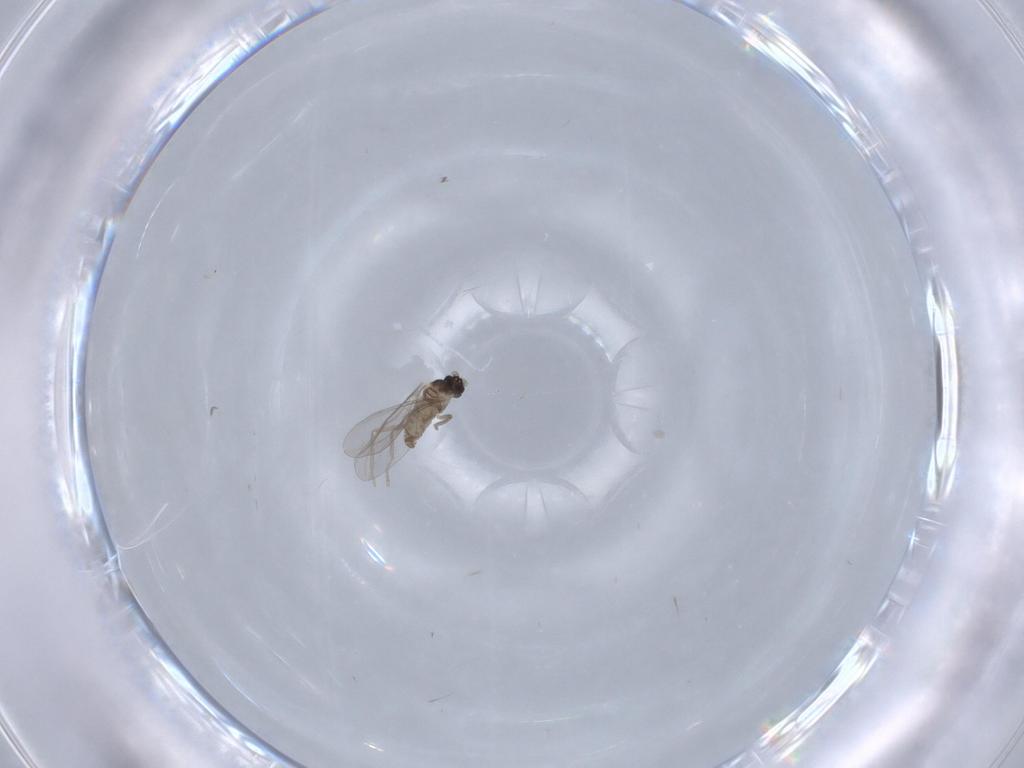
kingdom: Animalia
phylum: Arthropoda
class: Insecta
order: Diptera
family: Cecidomyiidae
